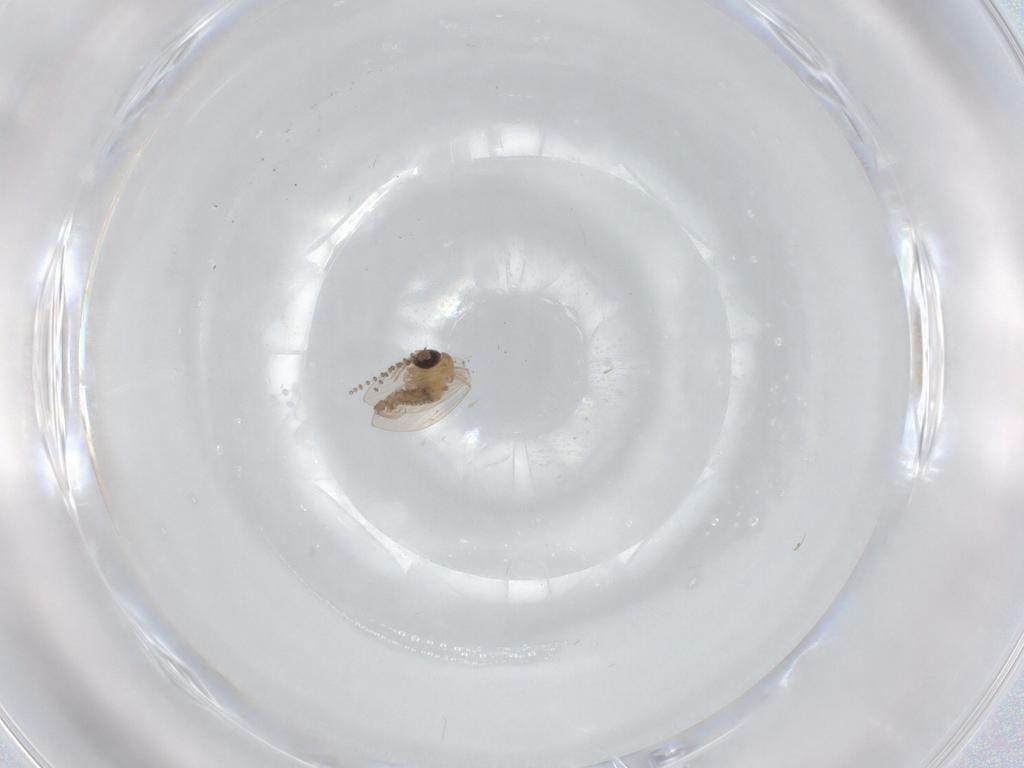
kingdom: Animalia
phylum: Arthropoda
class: Insecta
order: Diptera
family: Chironomidae
